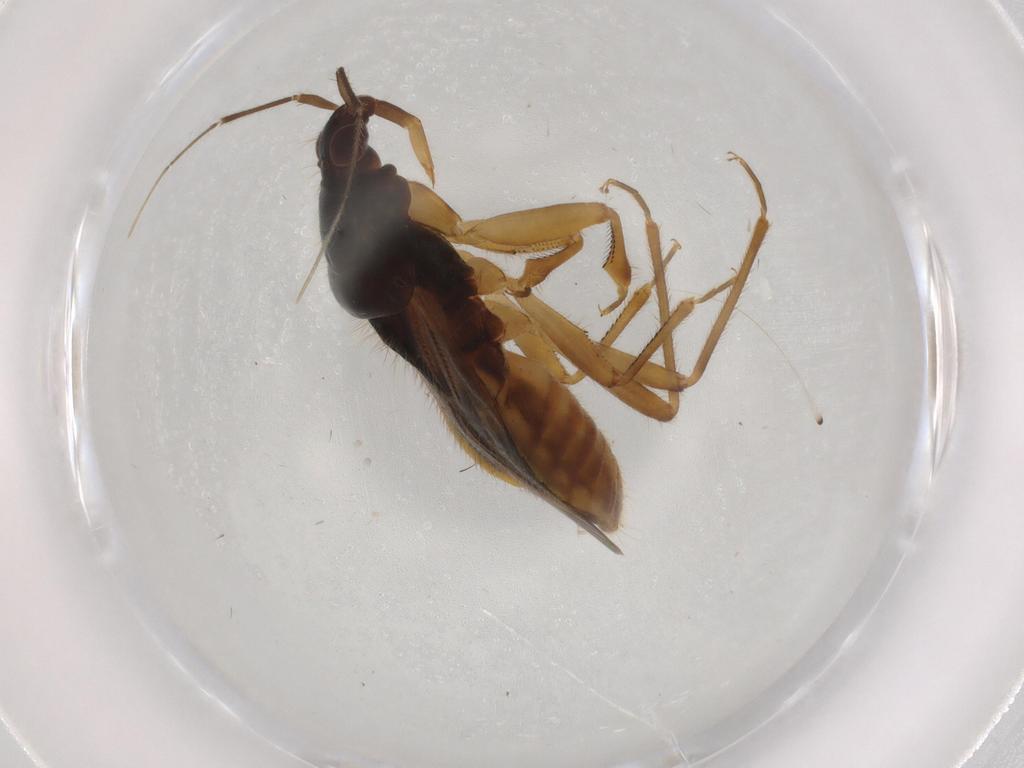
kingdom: Animalia
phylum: Arthropoda
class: Insecta
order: Hemiptera
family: Nabidae
